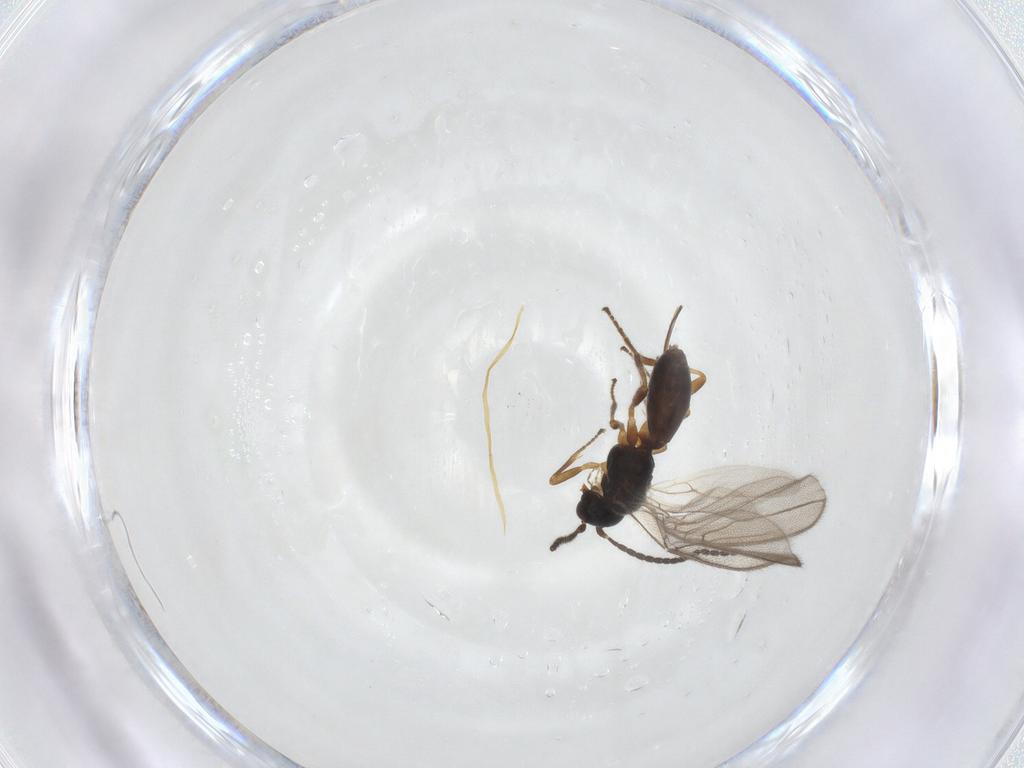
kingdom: Animalia
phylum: Arthropoda
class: Insecta
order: Hymenoptera
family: Braconidae
